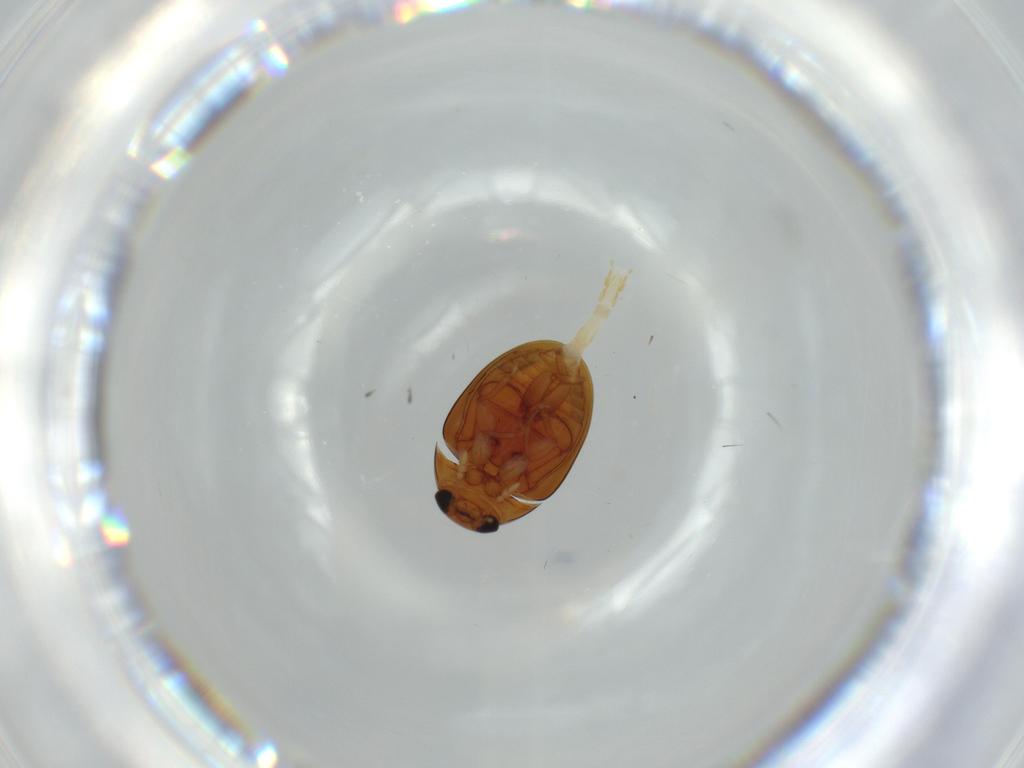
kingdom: Animalia
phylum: Arthropoda
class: Insecta
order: Coleoptera
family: Phalacridae
